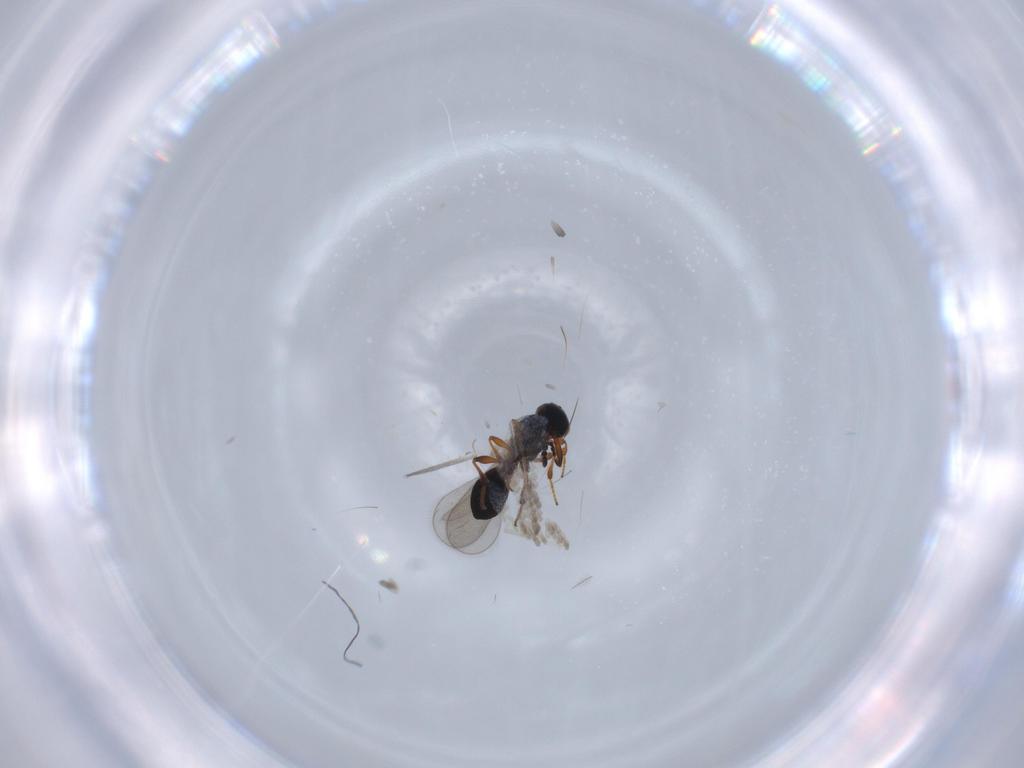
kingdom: Animalia
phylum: Arthropoda
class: Insecta
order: Hymenoptera
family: Platygastridae
